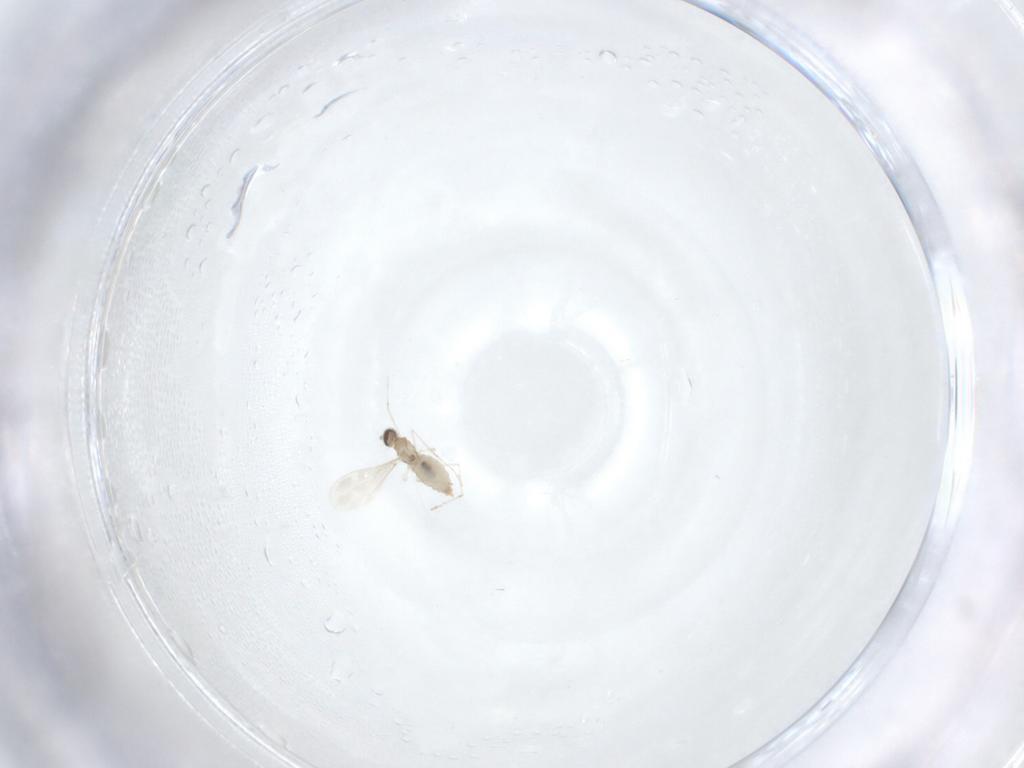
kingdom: Animalia
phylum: Arthropoda
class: Insecta
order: Diptera
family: Cecidomyiidae
